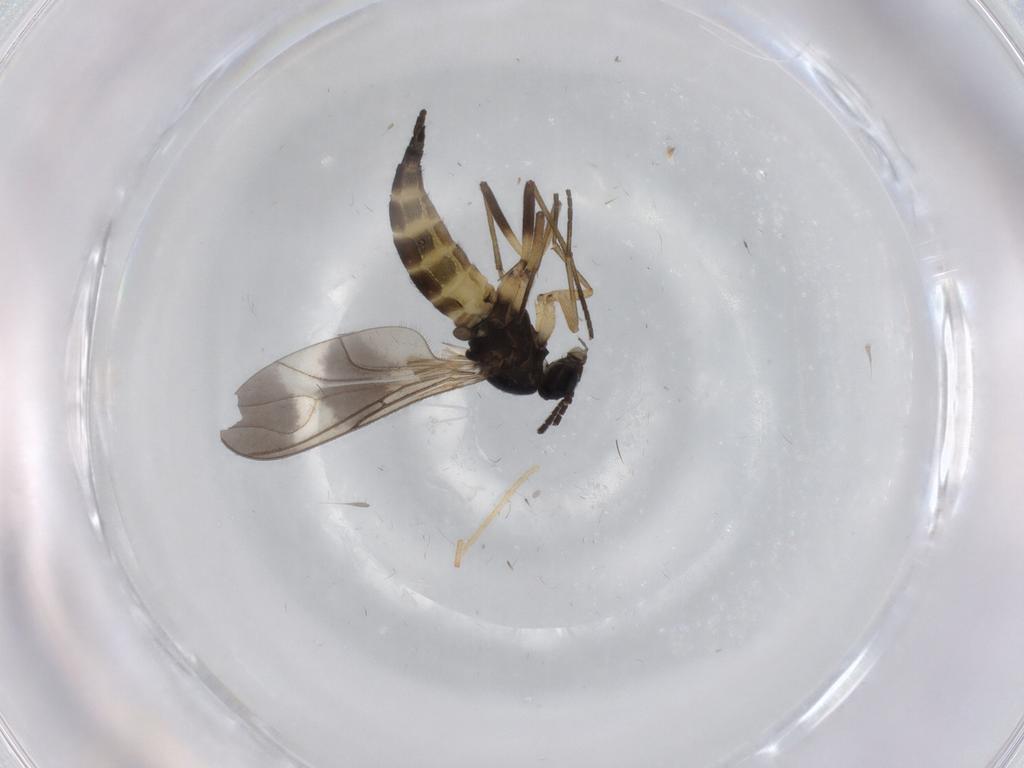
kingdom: Animalia
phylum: Arthropoda
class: Insecta
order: Diptera
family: Sciaridae
